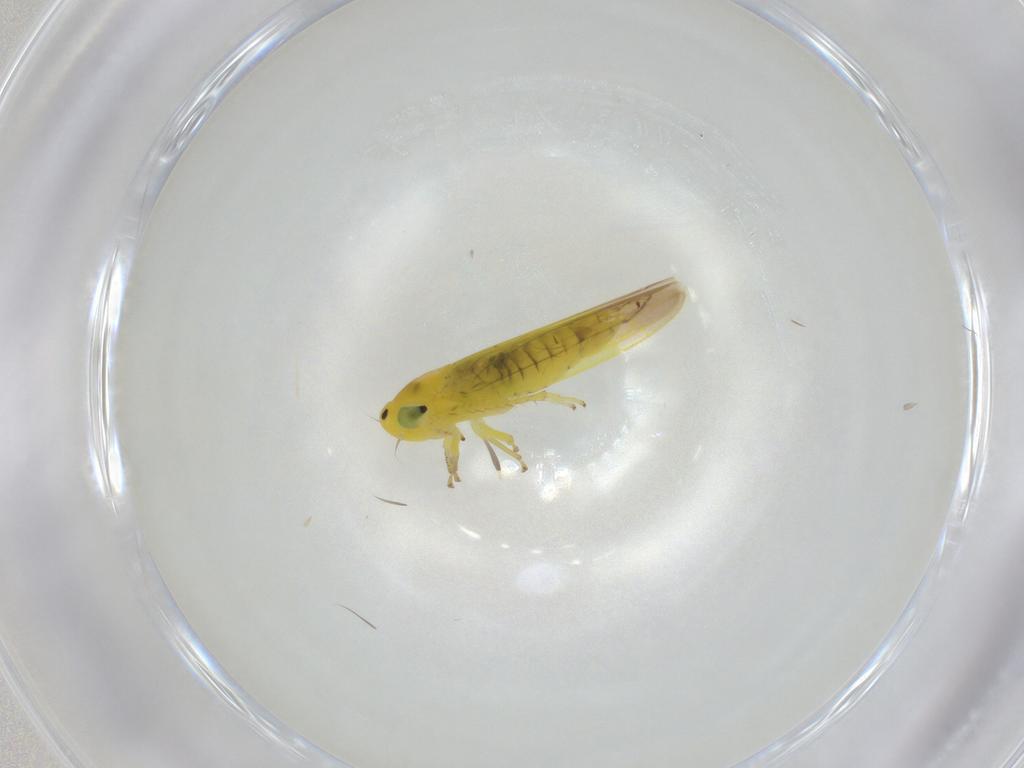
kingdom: Animalia
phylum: Arthropoda
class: Insecta
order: Hemiptera
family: Cicadellidae
